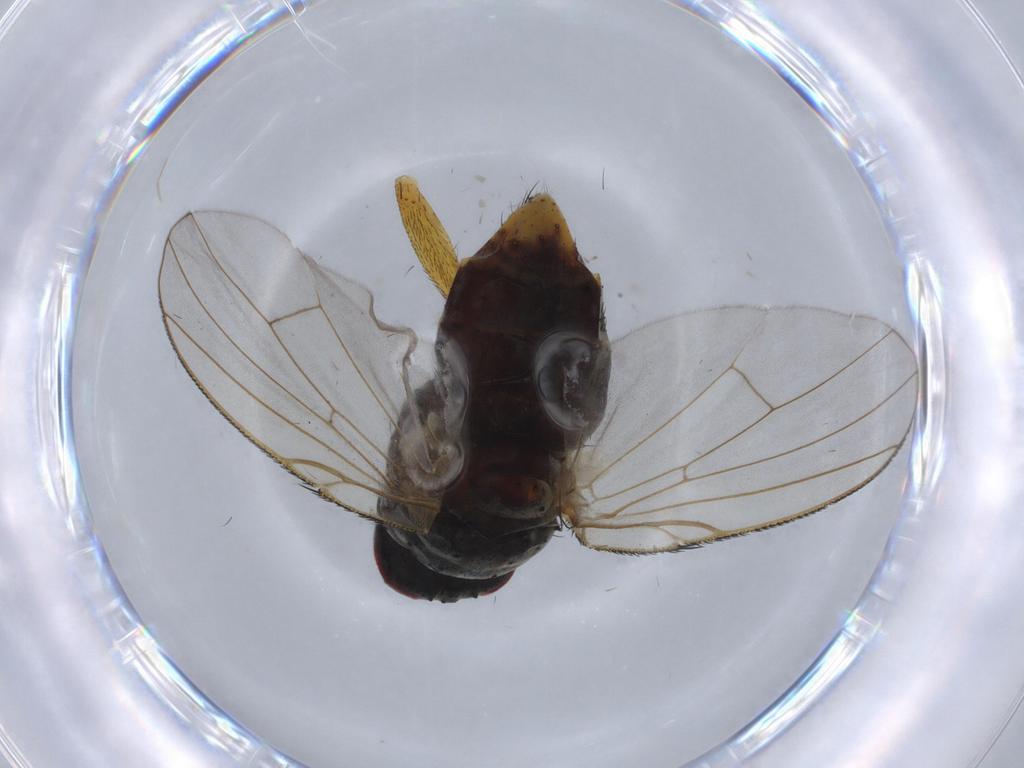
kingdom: Animalia
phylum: Arthropoda
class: Insecta
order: Diptera
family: Muscidae
